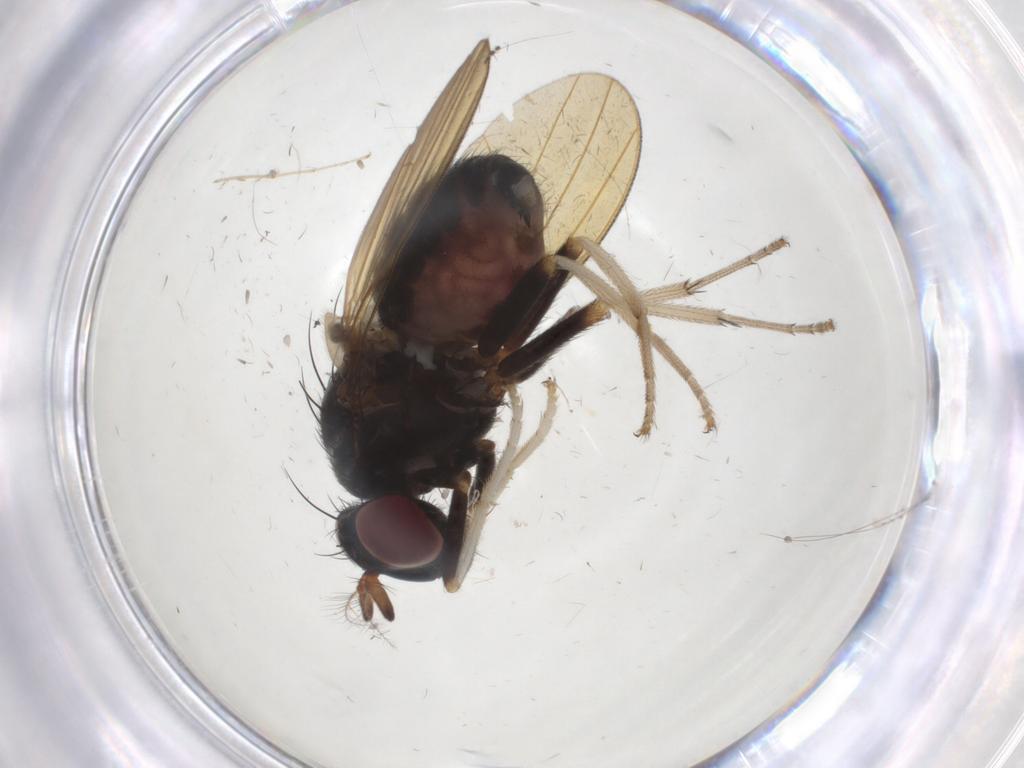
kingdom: Animalia
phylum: Arthropoda
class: Insecta
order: Diptera
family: Lauxaniidae
